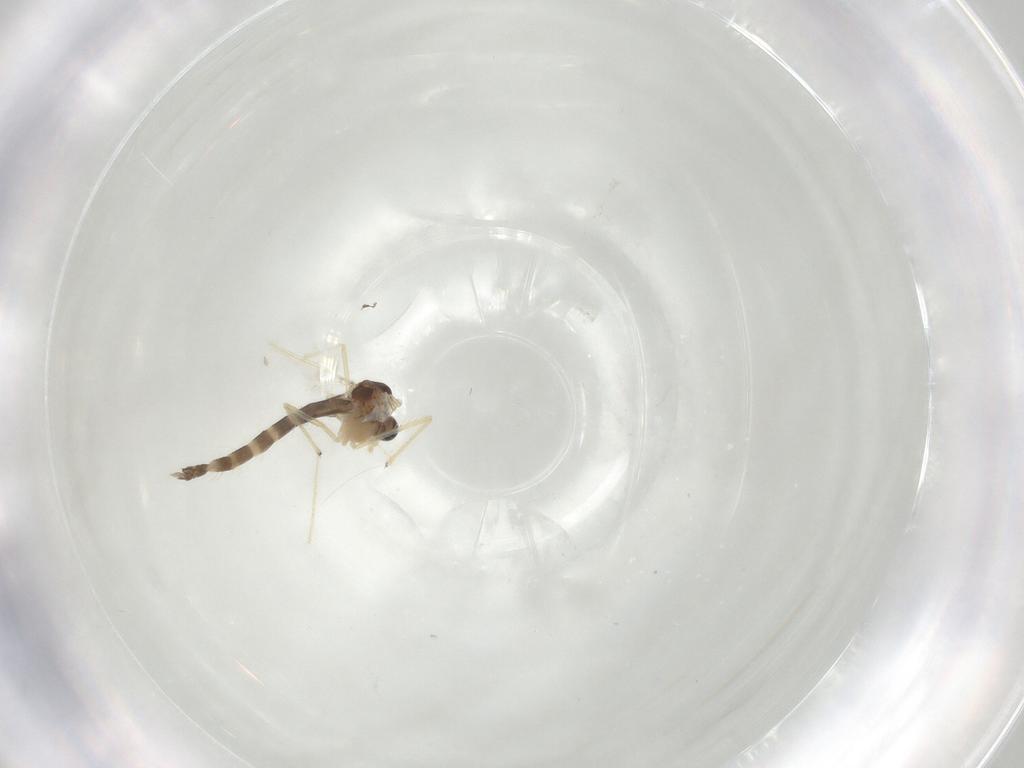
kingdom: Animalia
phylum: Arthropoda
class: Insecta
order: Diptera
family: Chironomidae
